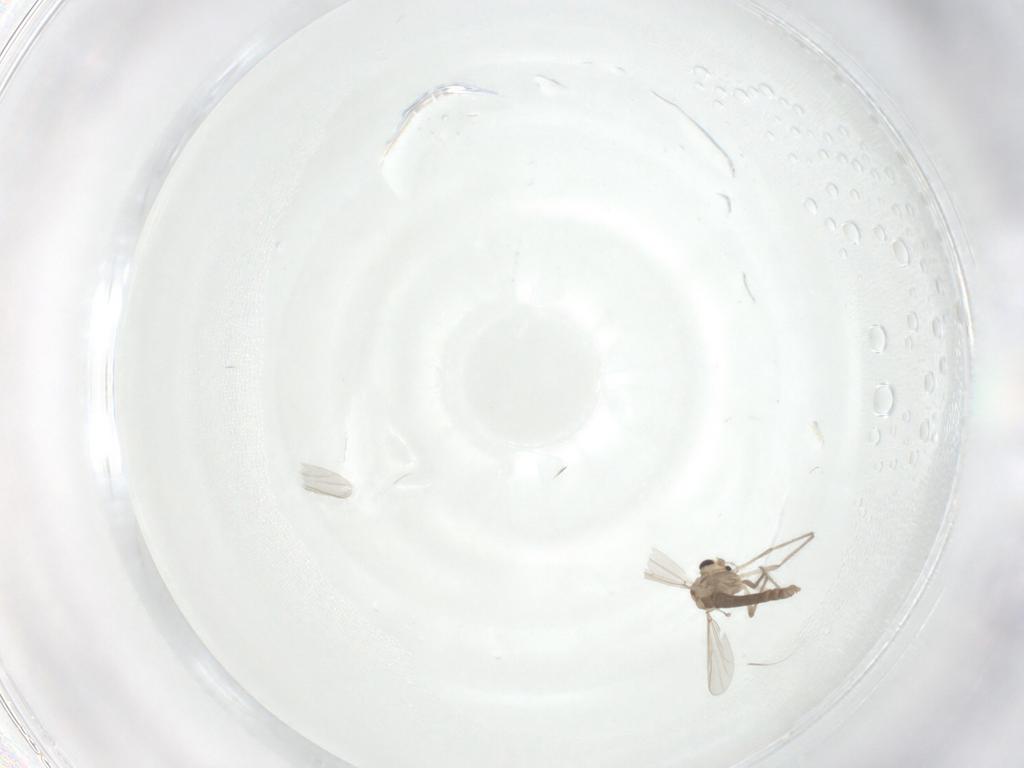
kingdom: Animalia
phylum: Arthropoda
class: Insecta
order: Diptera
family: Chironomidae
